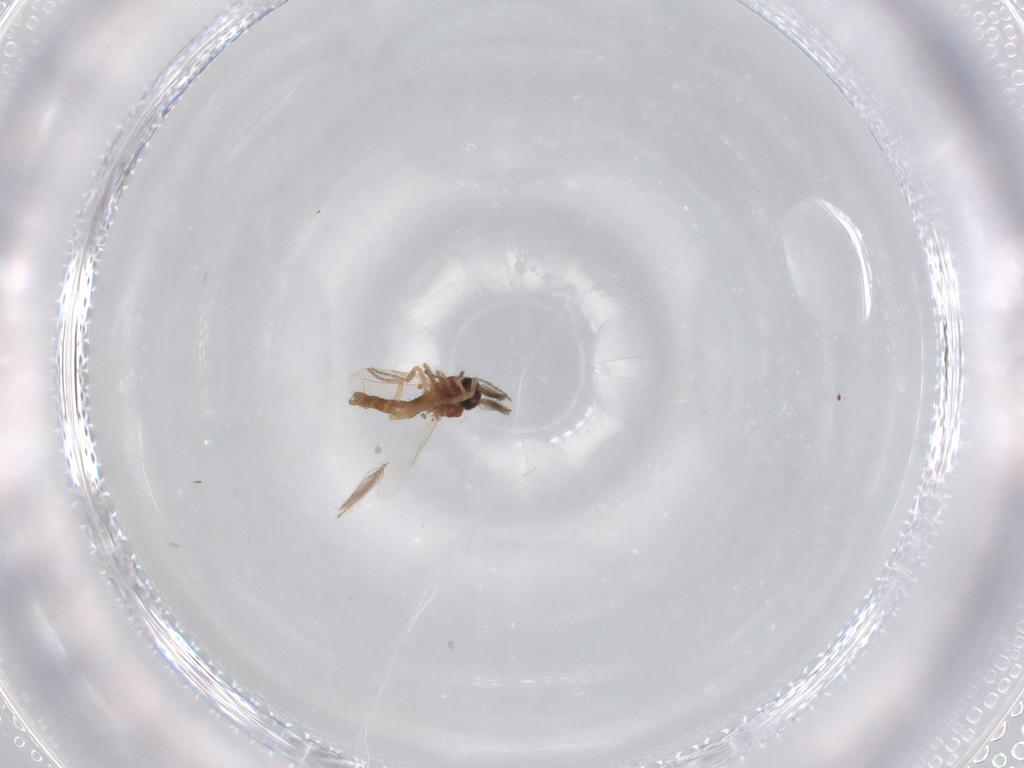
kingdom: Animalia
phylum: Arthropoda
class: Insecta
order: Diptera
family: Ceratopogonidae
